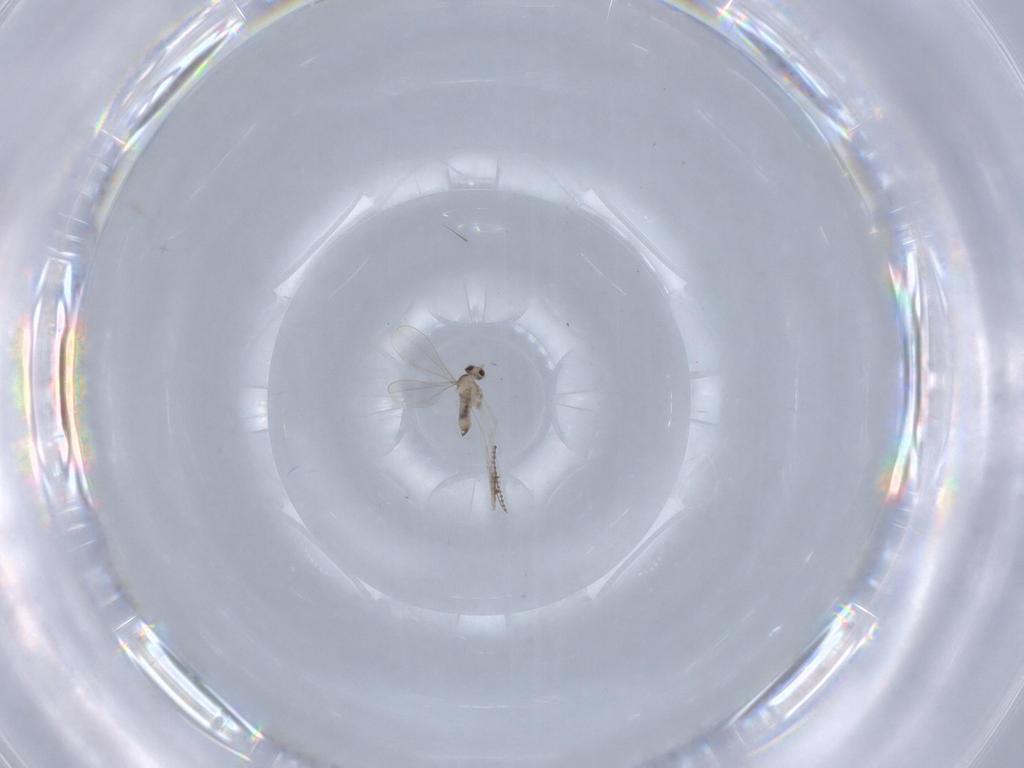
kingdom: Animalia
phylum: Arthropoda
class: Insecta
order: Diptera
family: Cecidomyiidae
